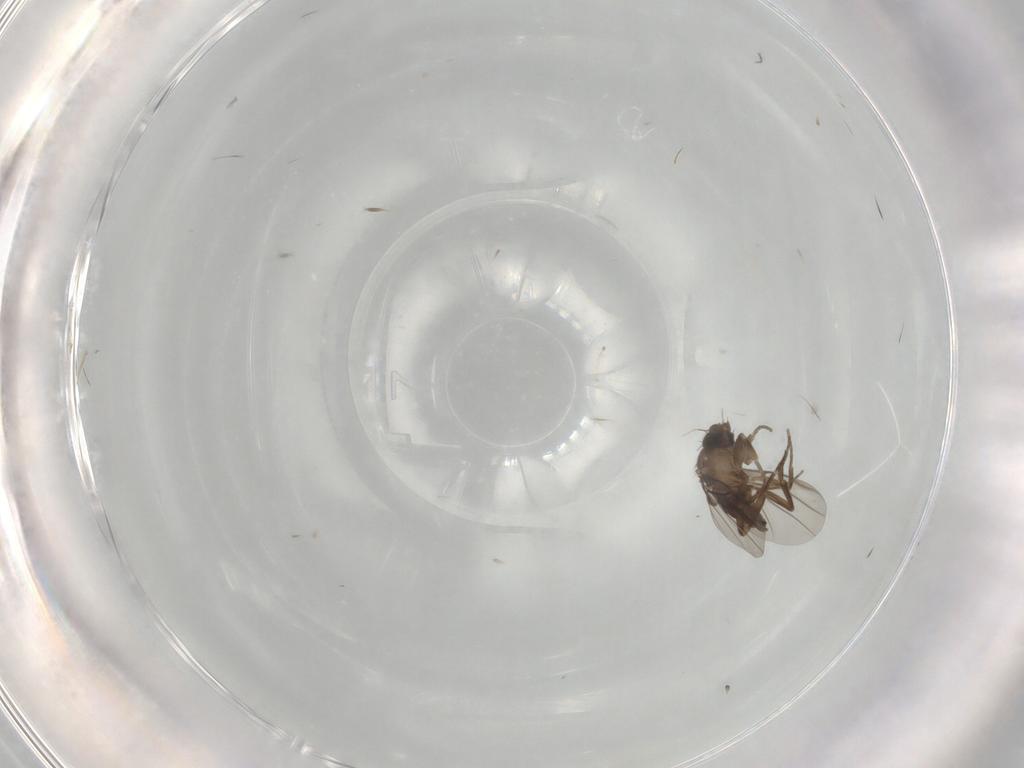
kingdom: Animalia
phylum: Arthropoda
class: Insecta
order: Diptera
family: Phoridae
